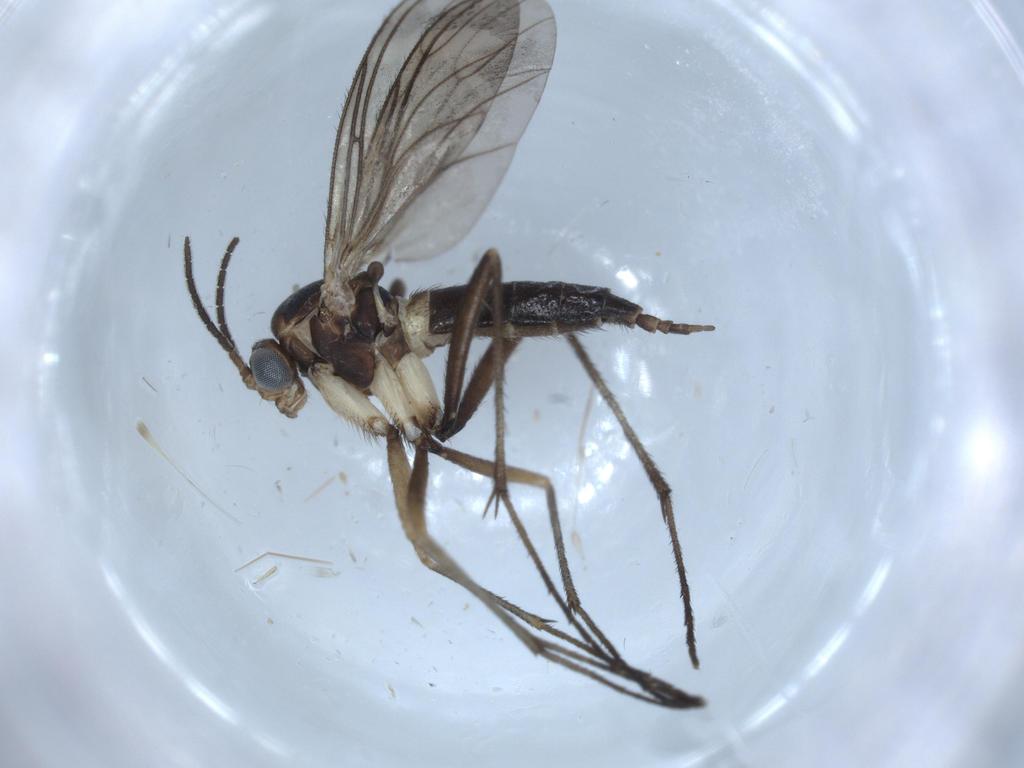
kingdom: Animalia
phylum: Arthropoda
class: Insecta
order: Diptera
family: Sciaridae
